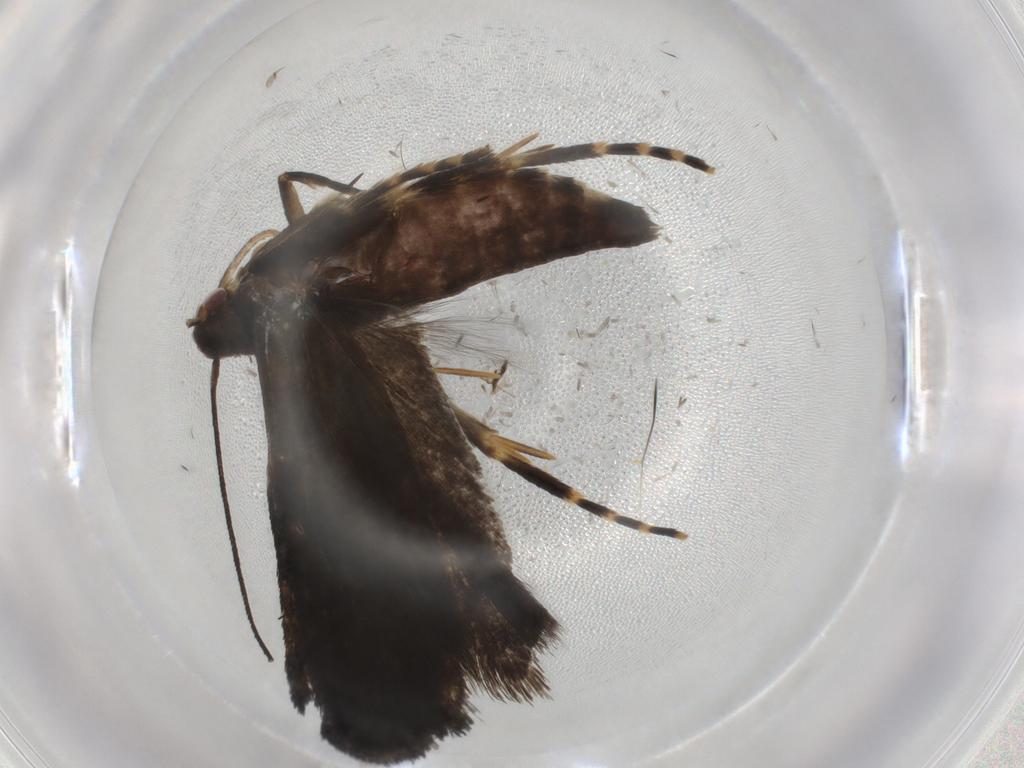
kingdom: Animalia
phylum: Arthropoda
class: Insecta
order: Lepidoptera
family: Gelechiidae
